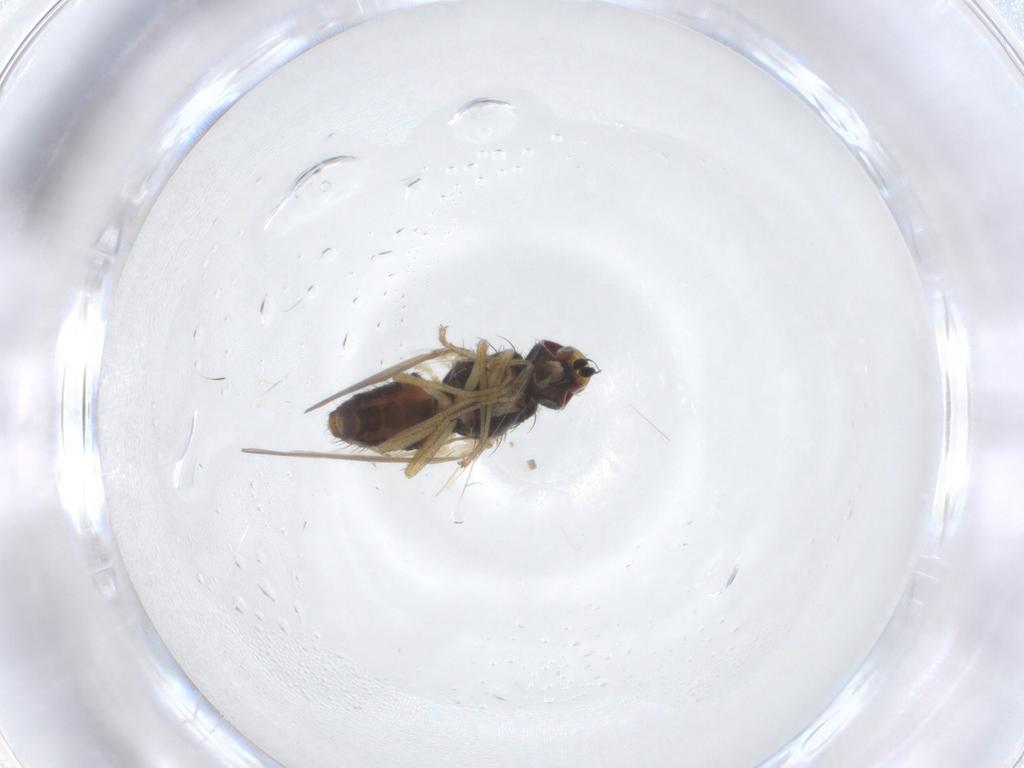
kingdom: Animalia
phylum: Arthropoda
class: Insecta
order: Diptera
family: Heleomyzidae
